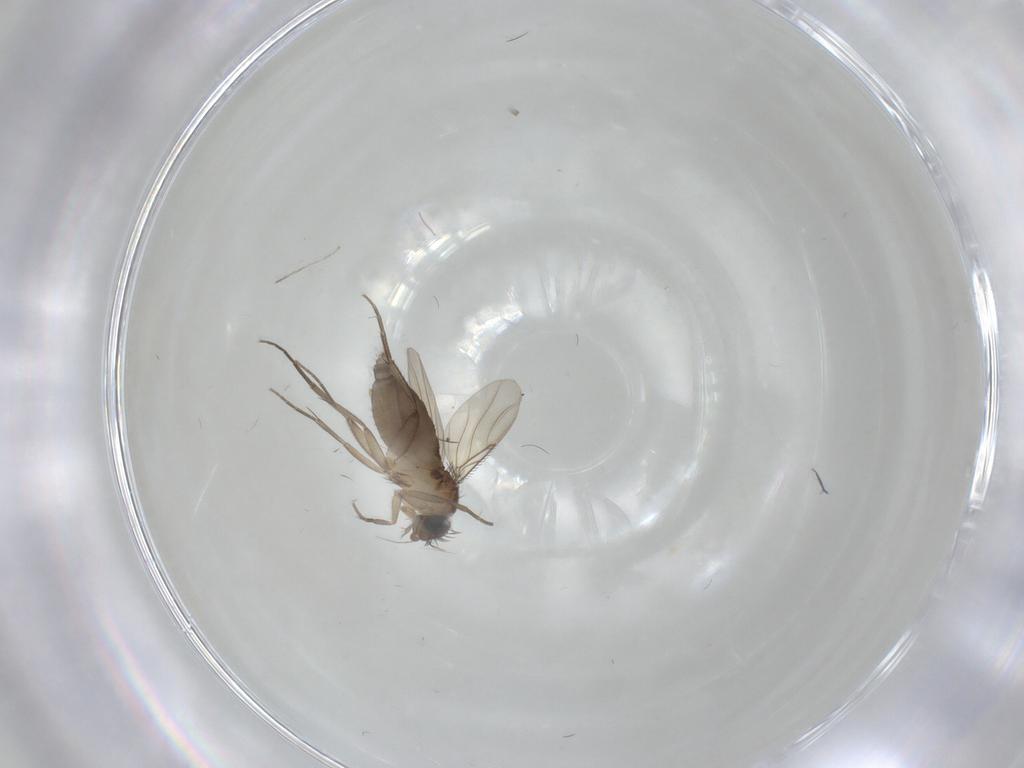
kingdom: Animalia
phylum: Arthropoda
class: Insecta
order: Diptera
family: Phoridae
